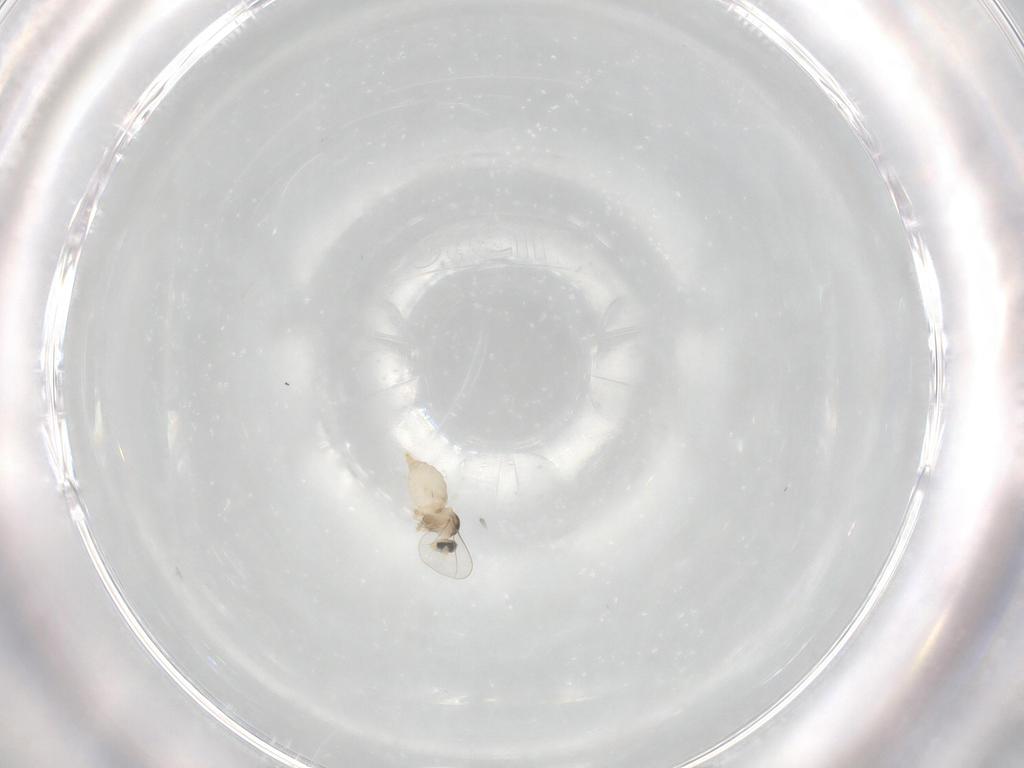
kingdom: Animalia
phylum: Arthropoda
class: Insecta
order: Diptera
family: Cecidomyiidae
